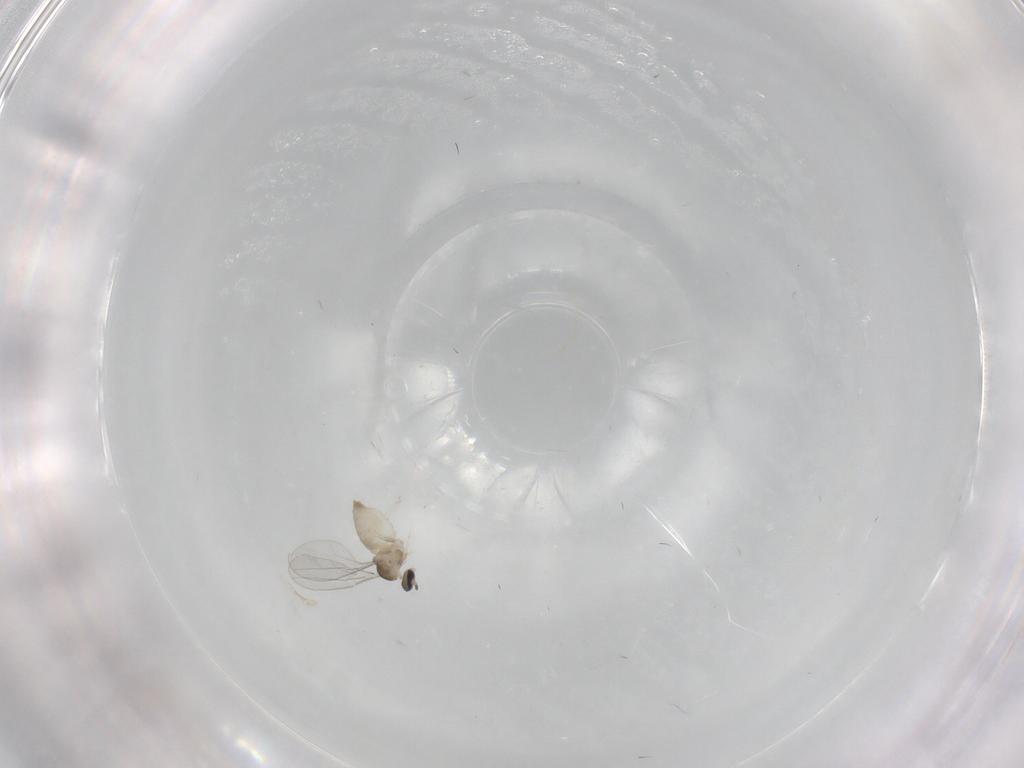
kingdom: Animalia
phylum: Arthropoda
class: Insecta
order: Diptera
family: Cecidomyiidae
